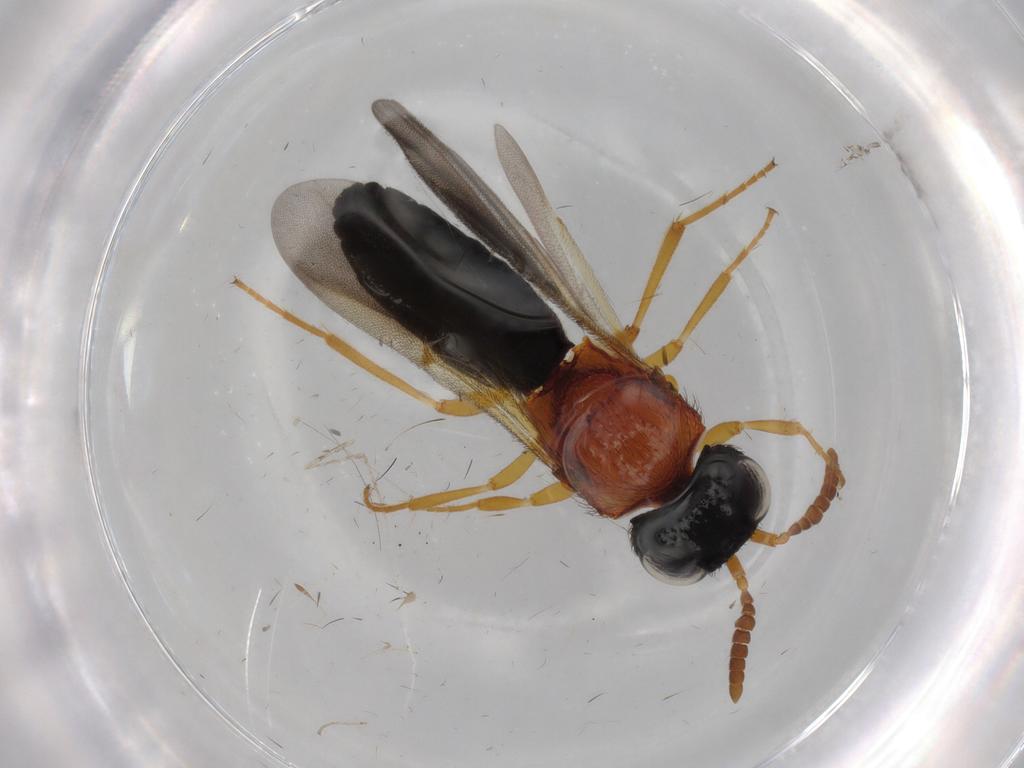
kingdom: Animalia
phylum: Arthropoda
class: Insecta
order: Hymenoptera
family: Scelionidae
